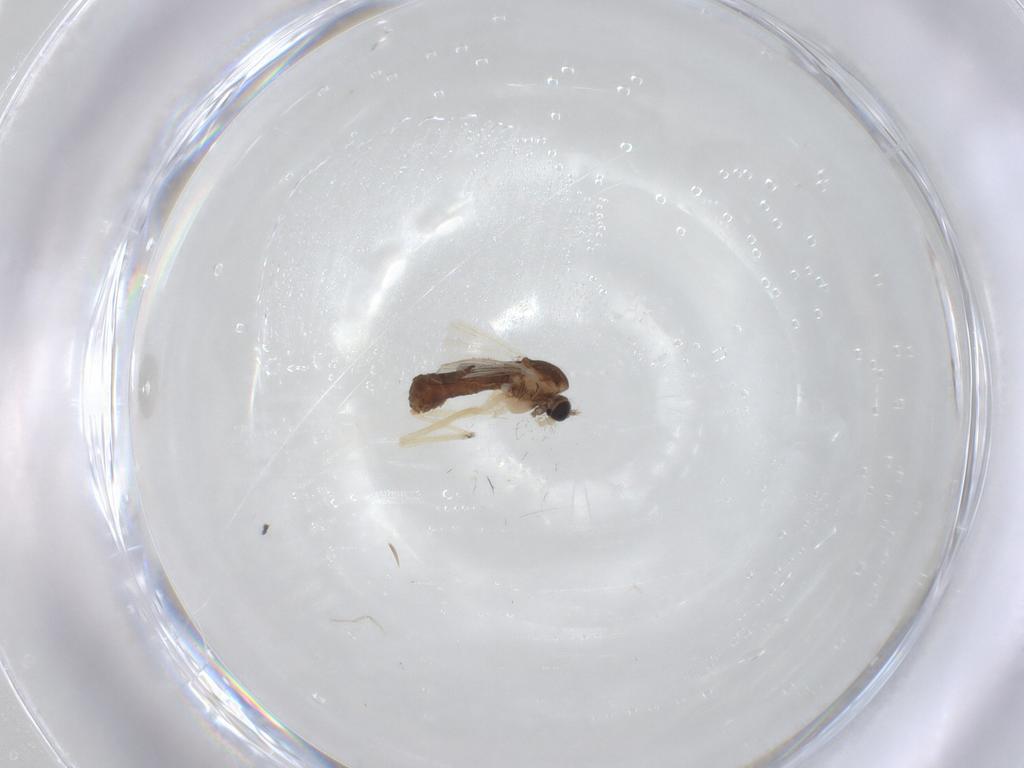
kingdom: Animalia
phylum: Arthropoda
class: Insecta
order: Diptera
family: Chironomidae
